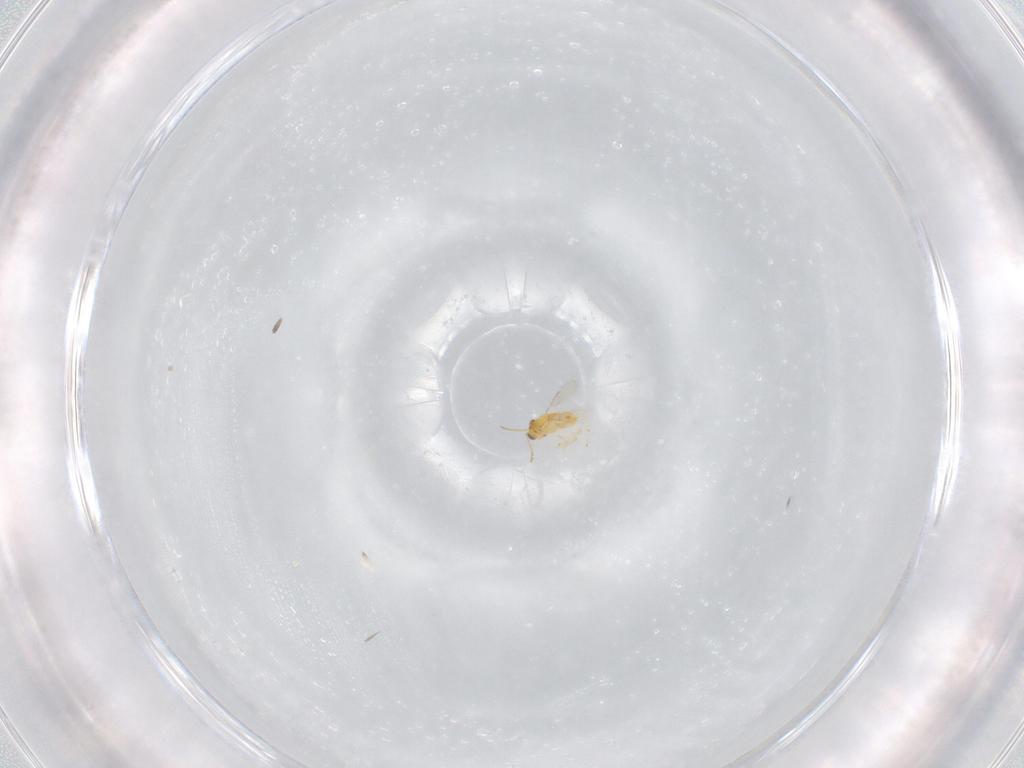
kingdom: Animalia
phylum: Arthropoda
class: Insecta
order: Hymenoptera
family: Aphelinidae
